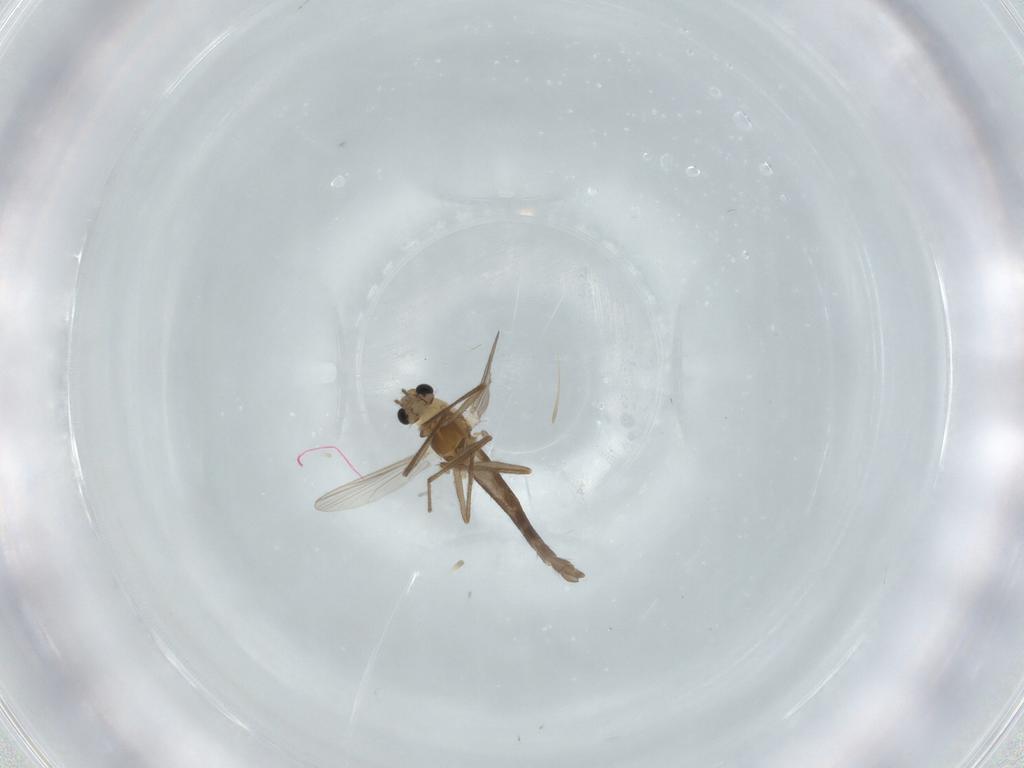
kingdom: Animalia
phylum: Arthropoda
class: Insecta
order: Diptera
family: Chironomidae
